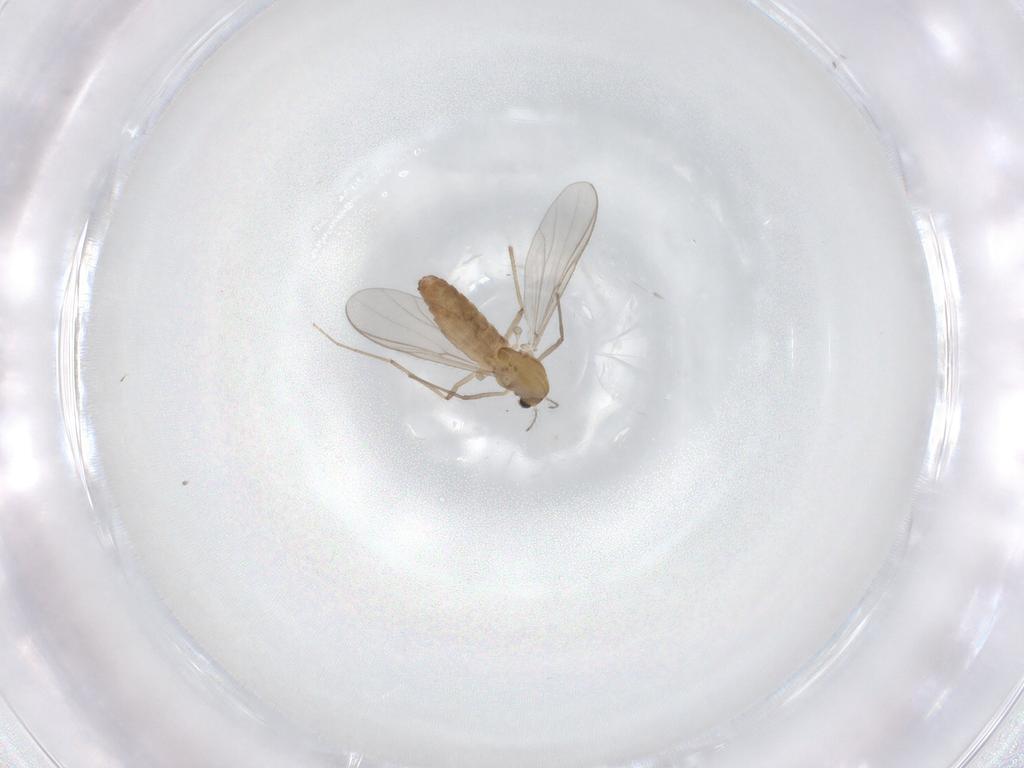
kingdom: Animalia
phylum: Arthropoda
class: Insecta
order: Diptera
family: Chironomidae
